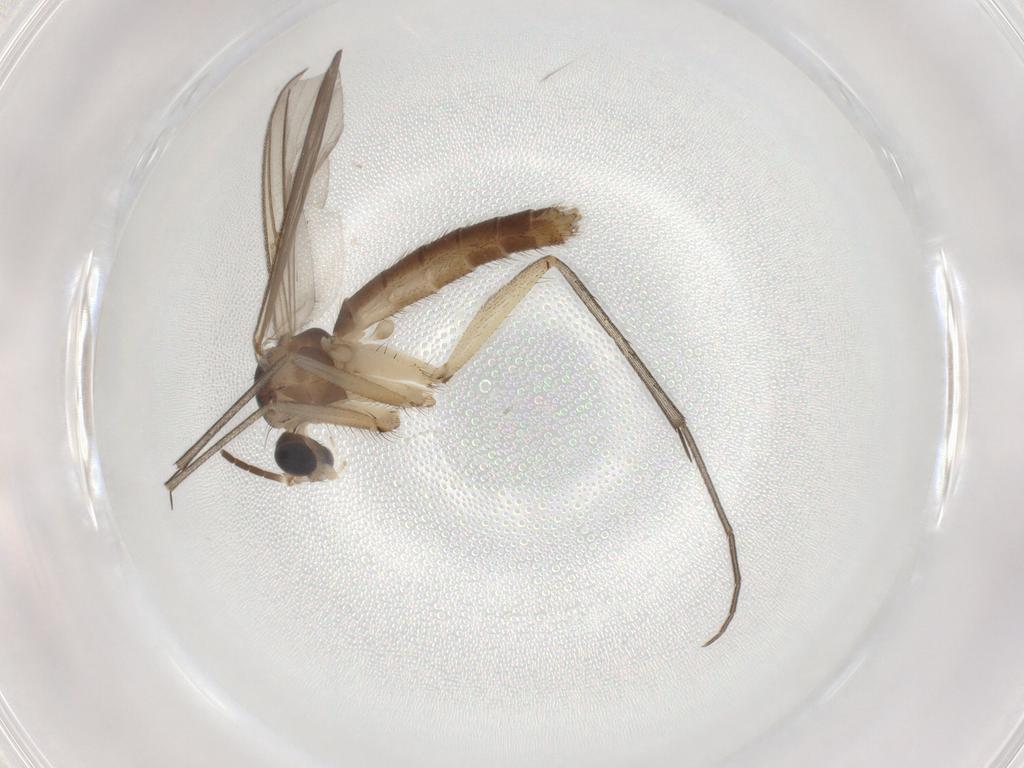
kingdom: Animalia
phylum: Arthropoda
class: Insecta
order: Diptera
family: Mycetophilidae
